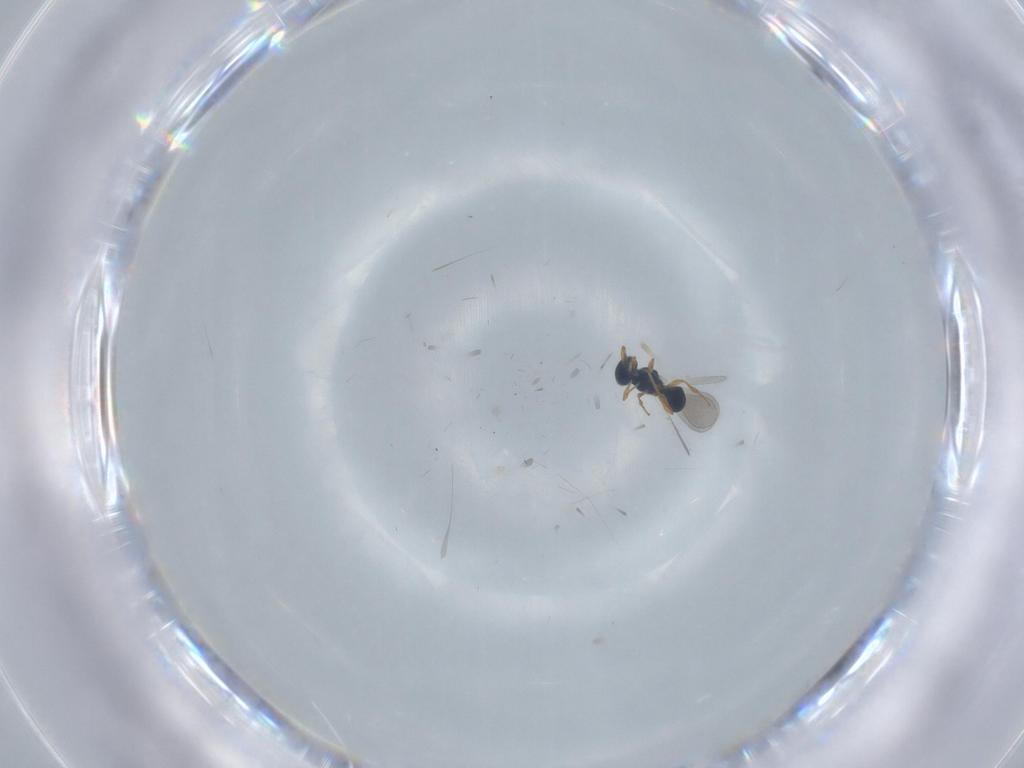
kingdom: Animalia
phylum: Arthropoda
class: Insecta
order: Hymenoptera
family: Platygastridae
